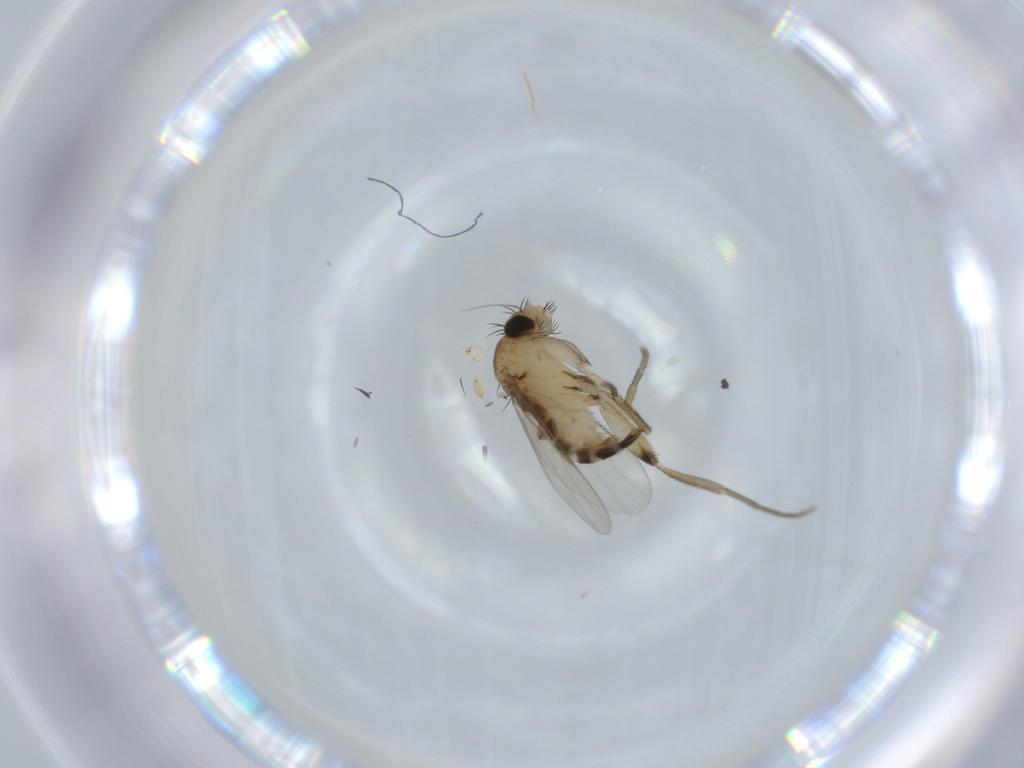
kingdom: Animalia
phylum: Arthropoda
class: Insecta
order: Diptera
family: Phoridae
